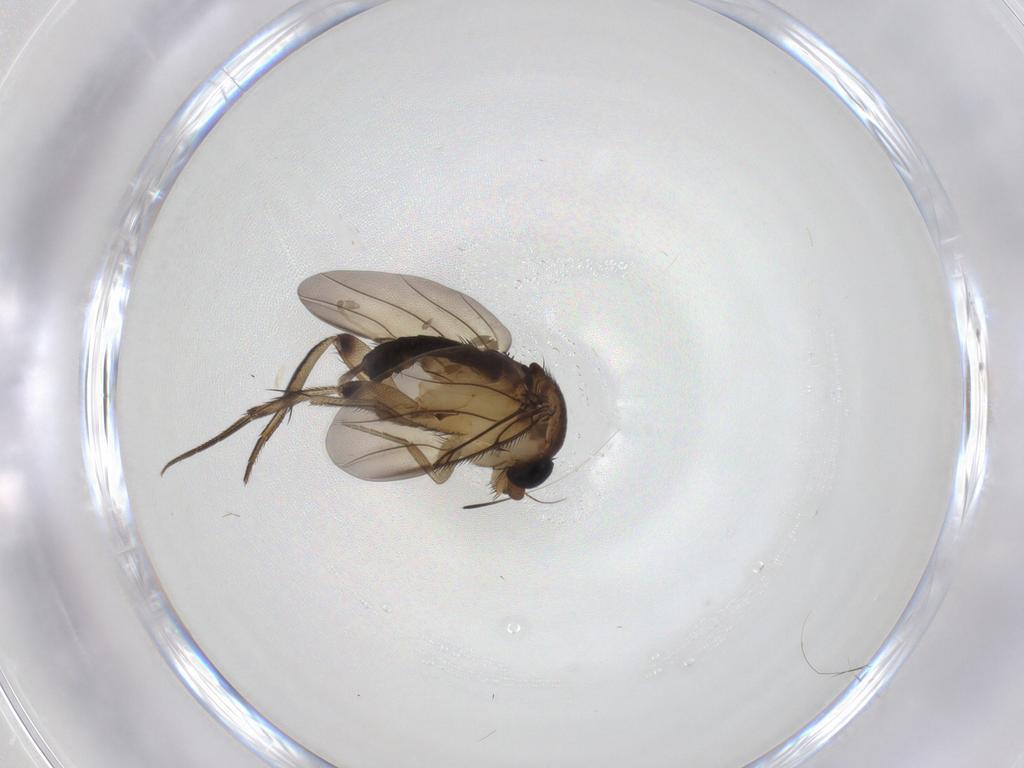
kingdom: Animalia
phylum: Arthropoda
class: Insecta
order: Diptera
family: Phoridae
